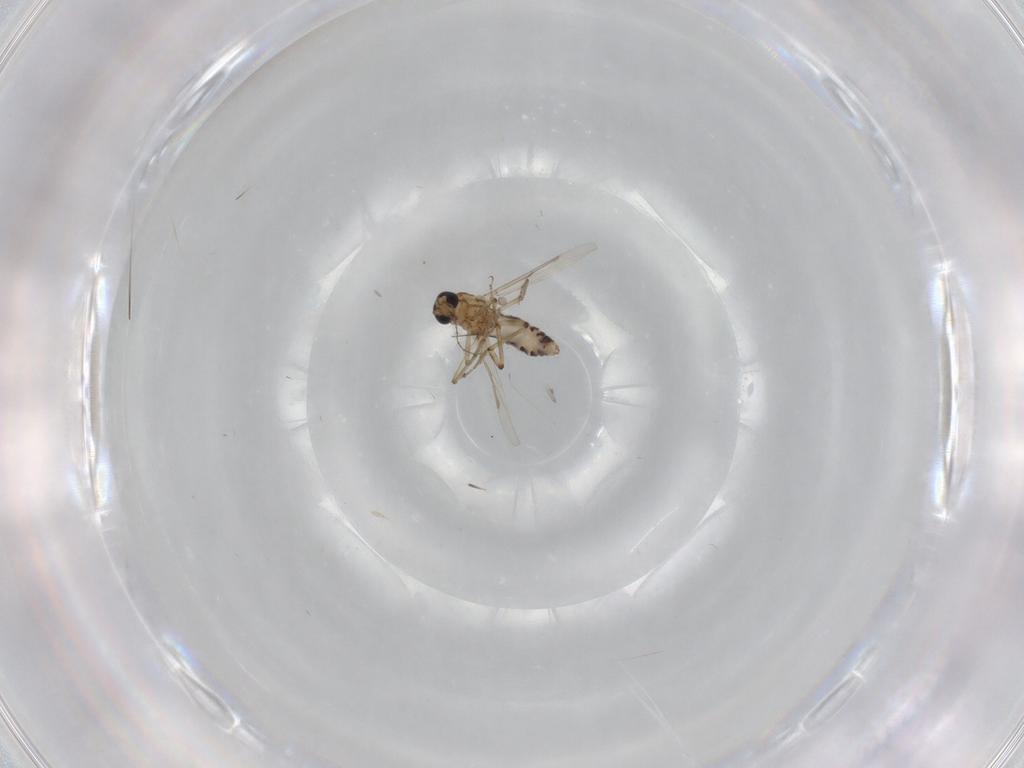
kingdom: Animalia
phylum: Arthropoda
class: Insecta
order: Diptera
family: Ceratopogonidae
